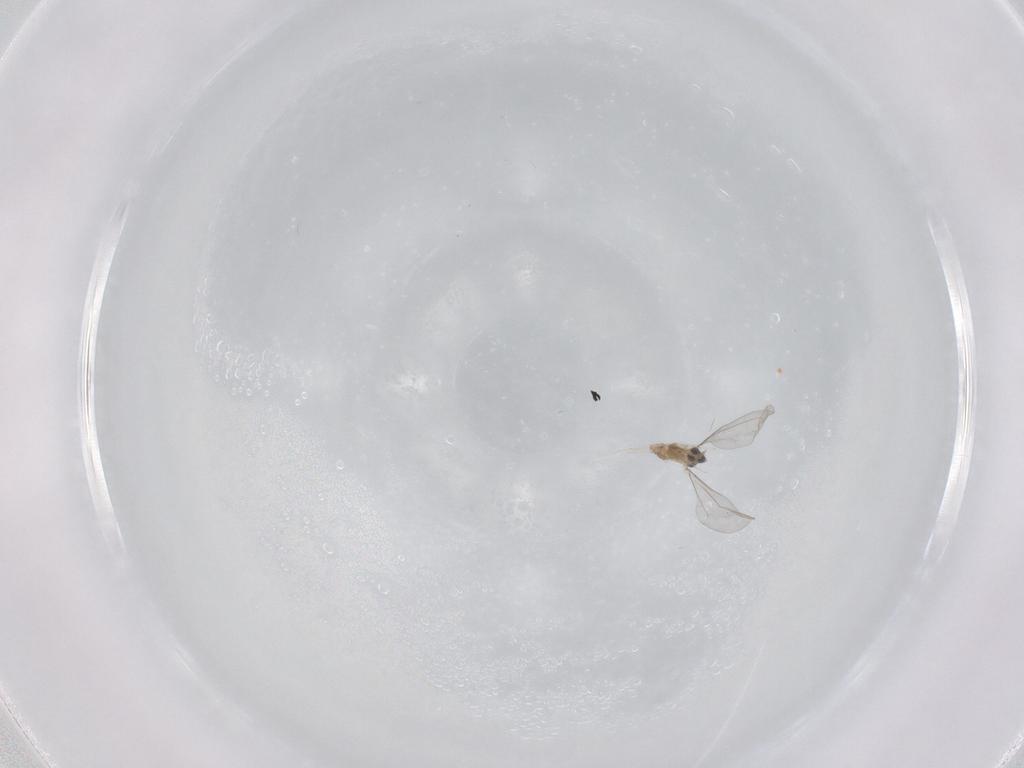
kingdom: Animalia
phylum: Arthropoda
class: Insecta
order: Diptera
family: Cecidomyiidae
